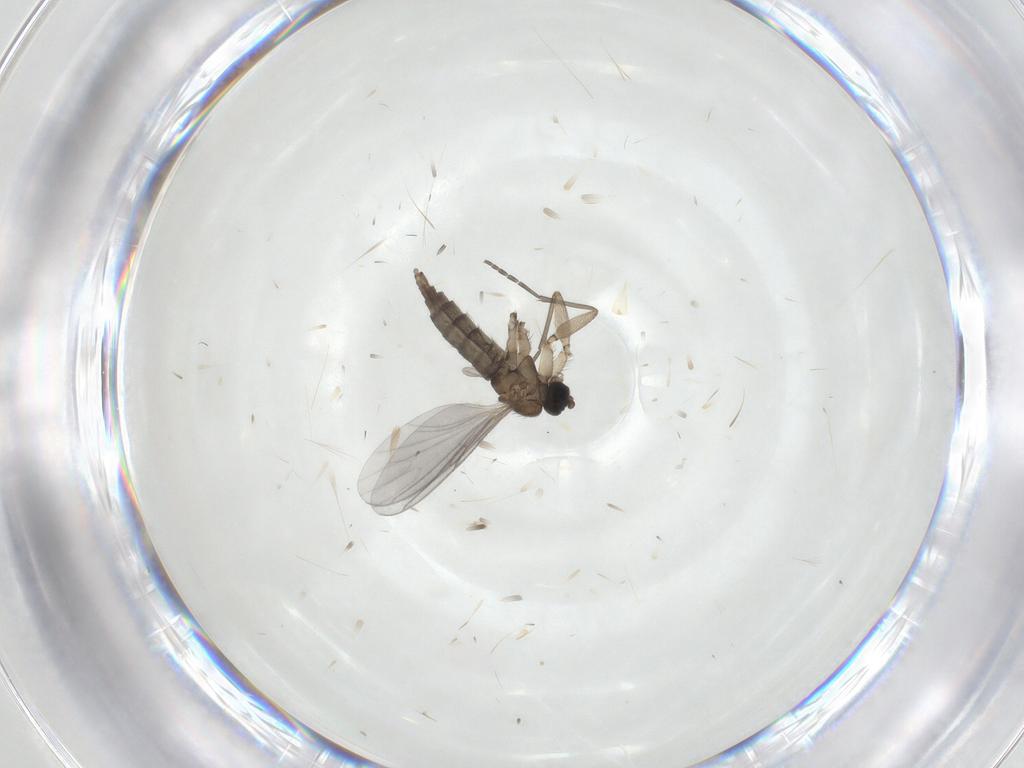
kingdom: Animalia
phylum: Arthropoda
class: Insecta
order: Diptera
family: Sciaridae
